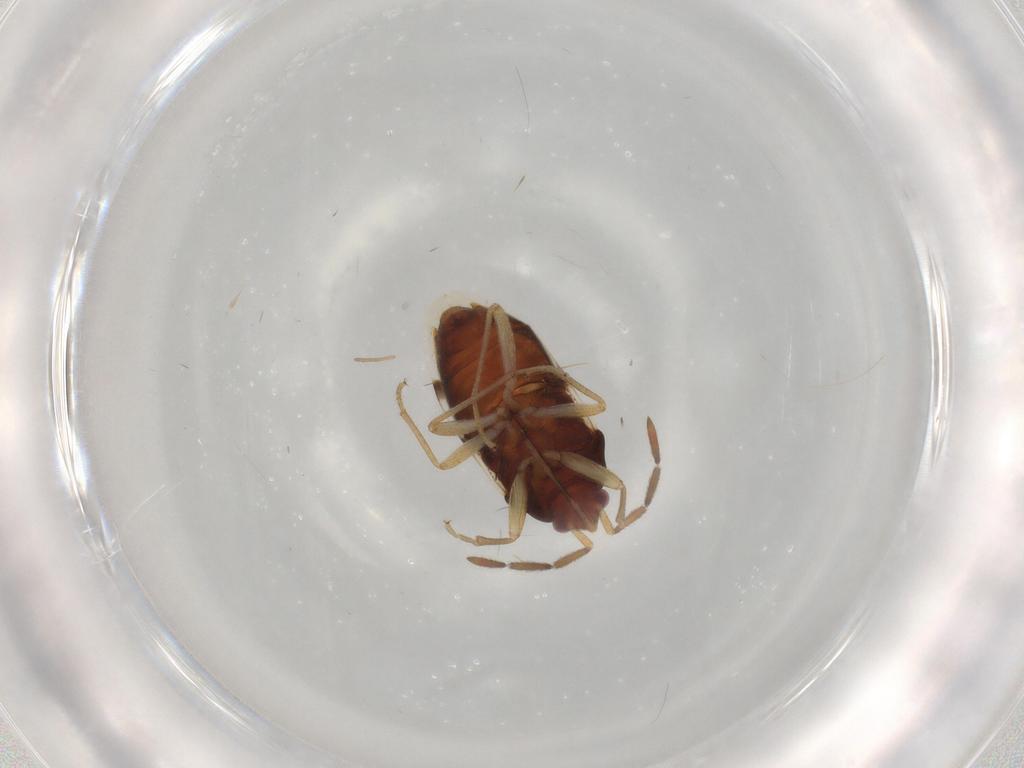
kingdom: Animalia
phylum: Arthropoda
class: Insecta
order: Hemiptera
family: Rhyparochromidae
